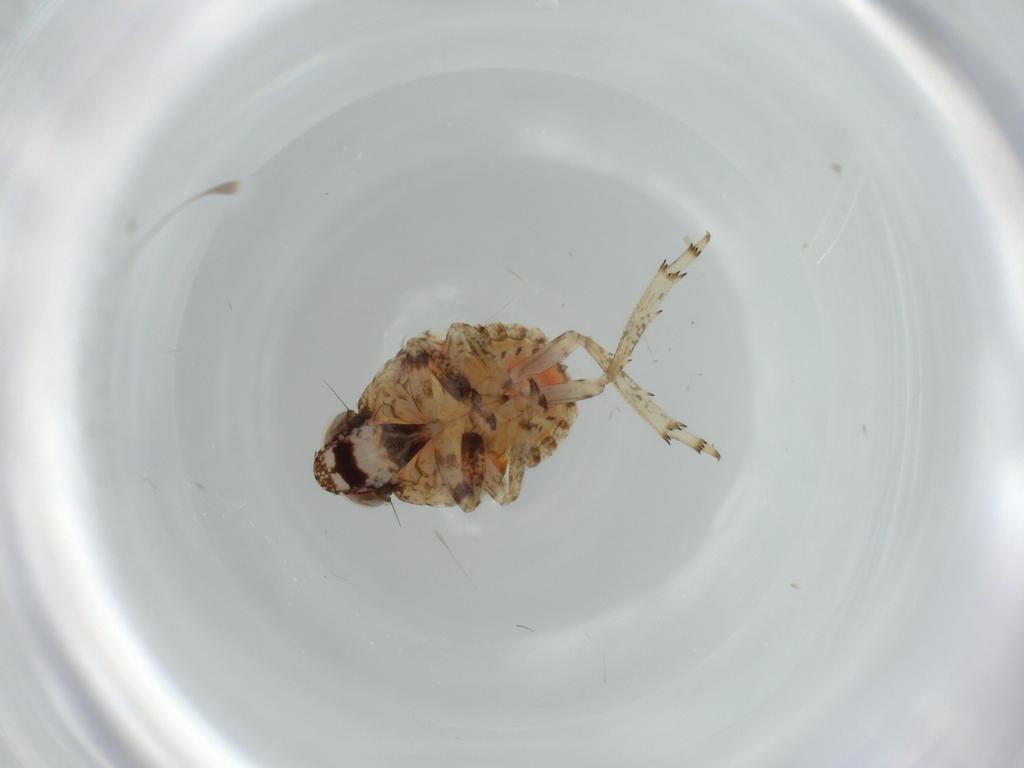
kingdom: Animalia
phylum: Arthropoda
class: Insecta
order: Hemiptera
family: Issidae
